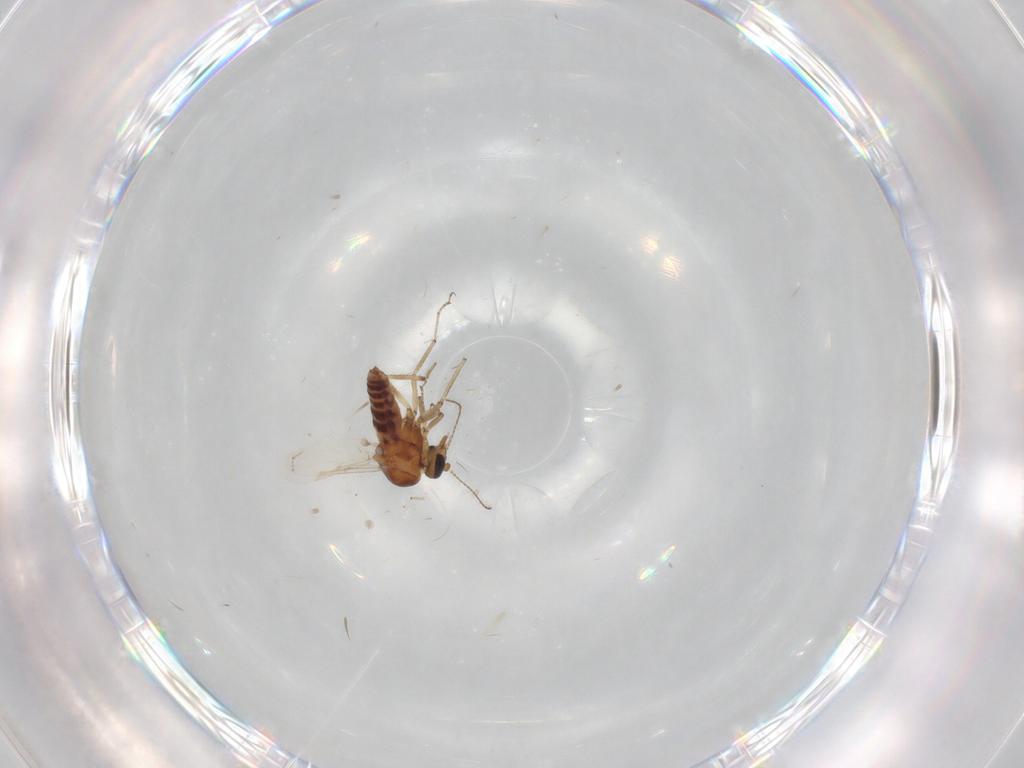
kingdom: Animalia
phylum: Arthropoda
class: Insecta
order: Diptera
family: Ceratopogonidae
